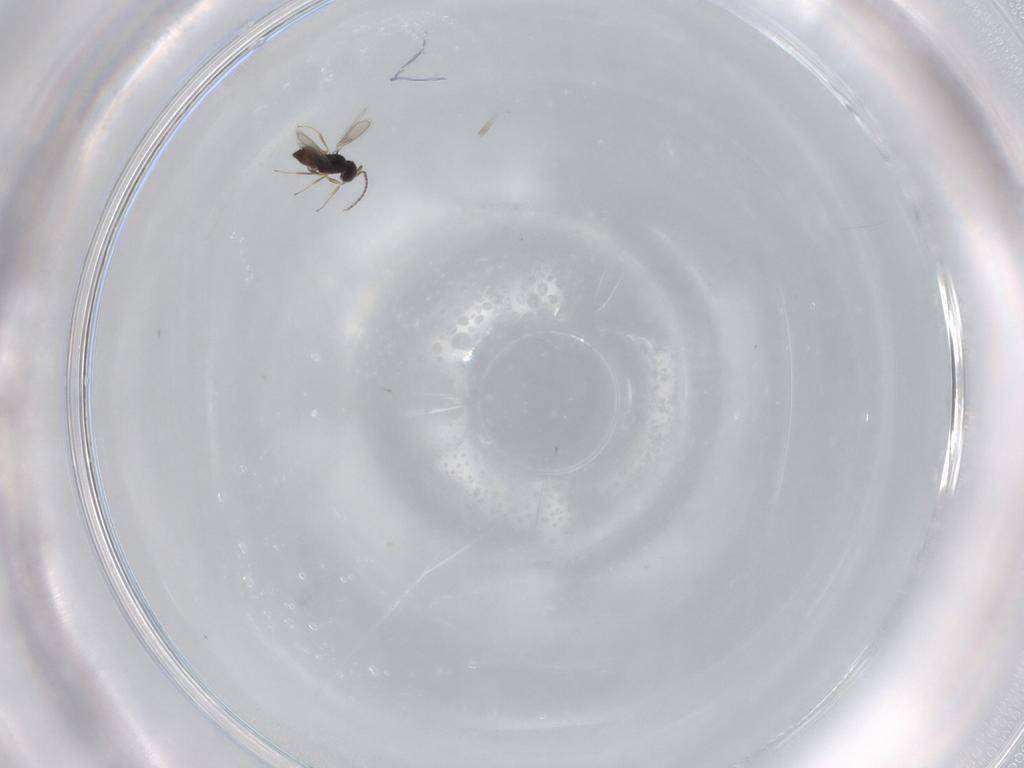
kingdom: Animalia
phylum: Arthropoda
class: Insecta
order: Hymenoptera
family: Scelionidae
